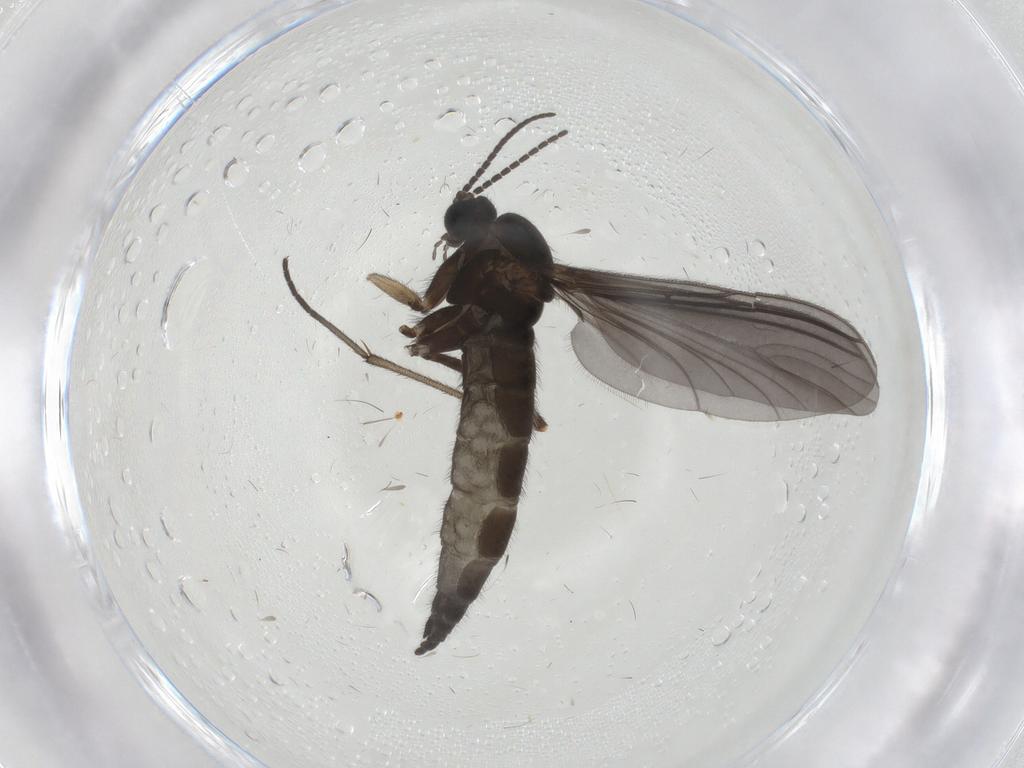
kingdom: Animalia
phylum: Arthropoda
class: Insecta
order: Diptera
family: Sciaridae
